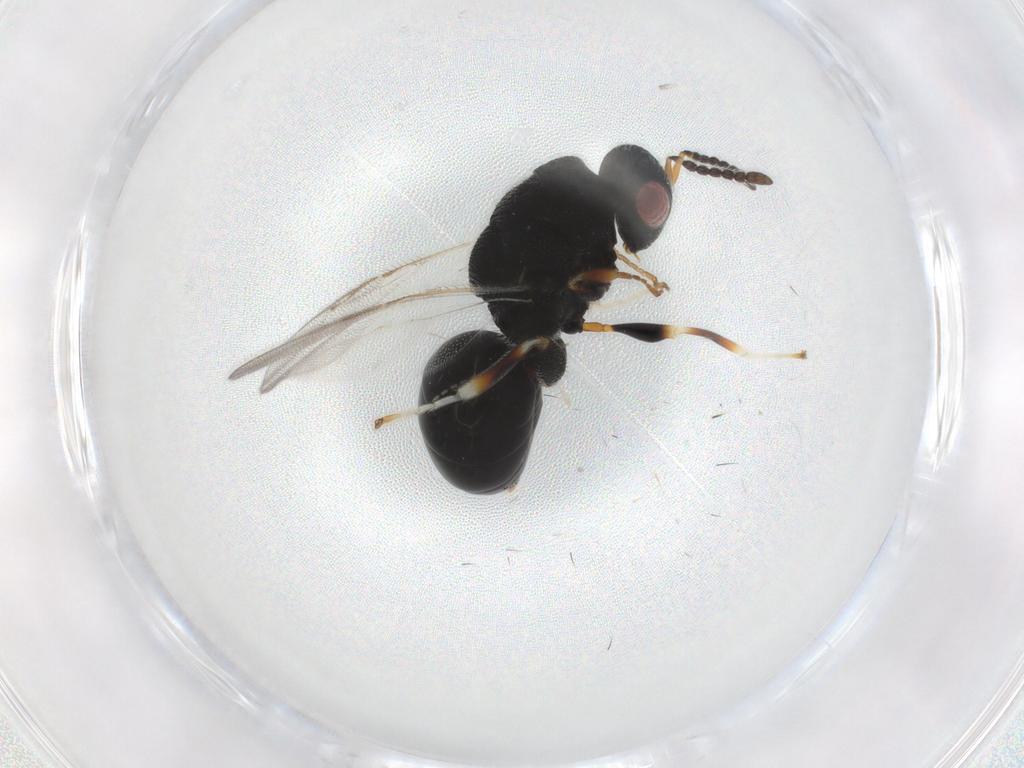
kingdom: Animalia
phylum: Arthropoda
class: Insecta
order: Hymenoptera
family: Eurytomidae
